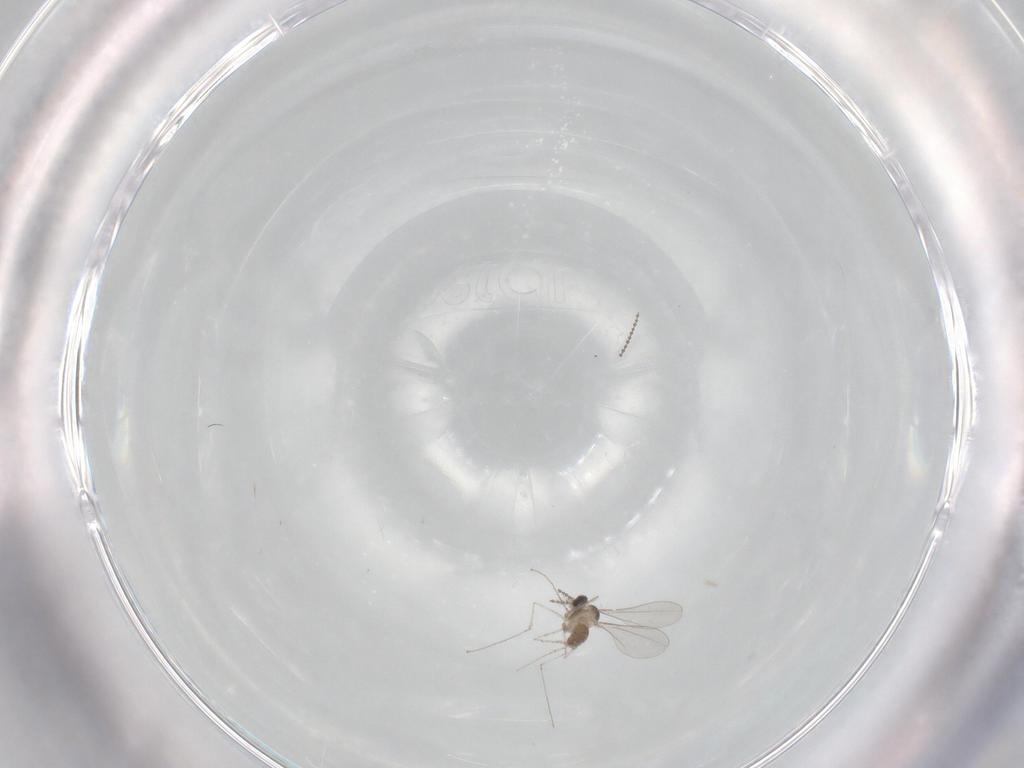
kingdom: Animalia
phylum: Arthropoda
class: Insecta
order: Diptera
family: Cecidomyiidae
